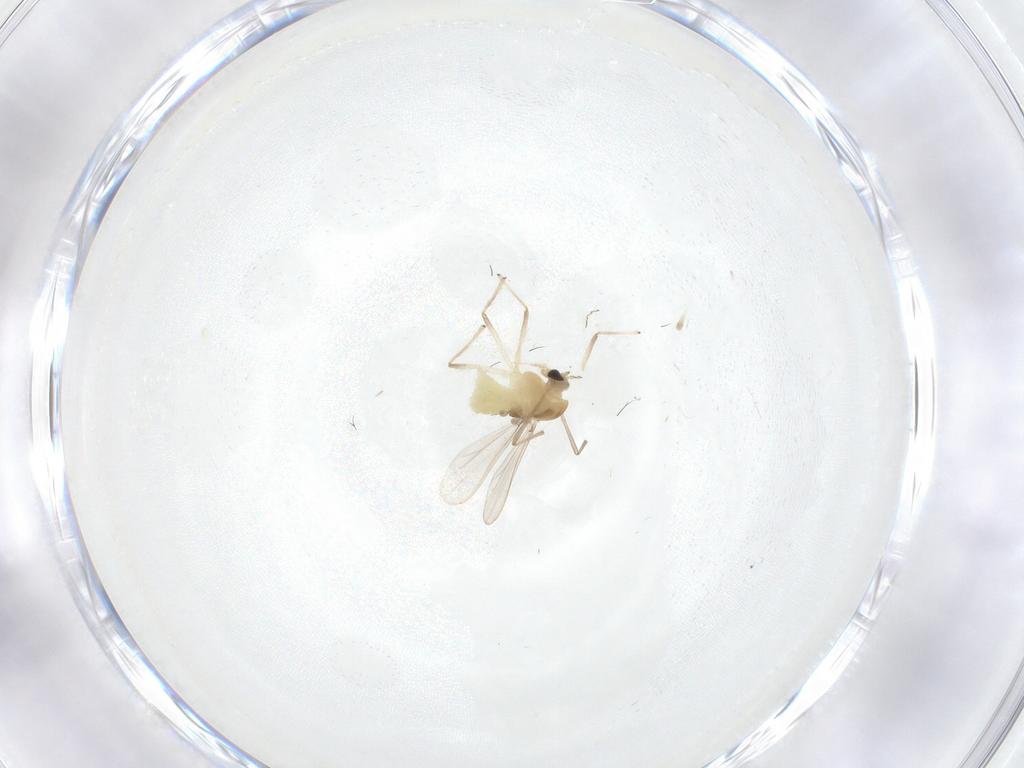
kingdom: Animalia
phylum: Arthropoda
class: Insecta
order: Diptera
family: Chironomidae
